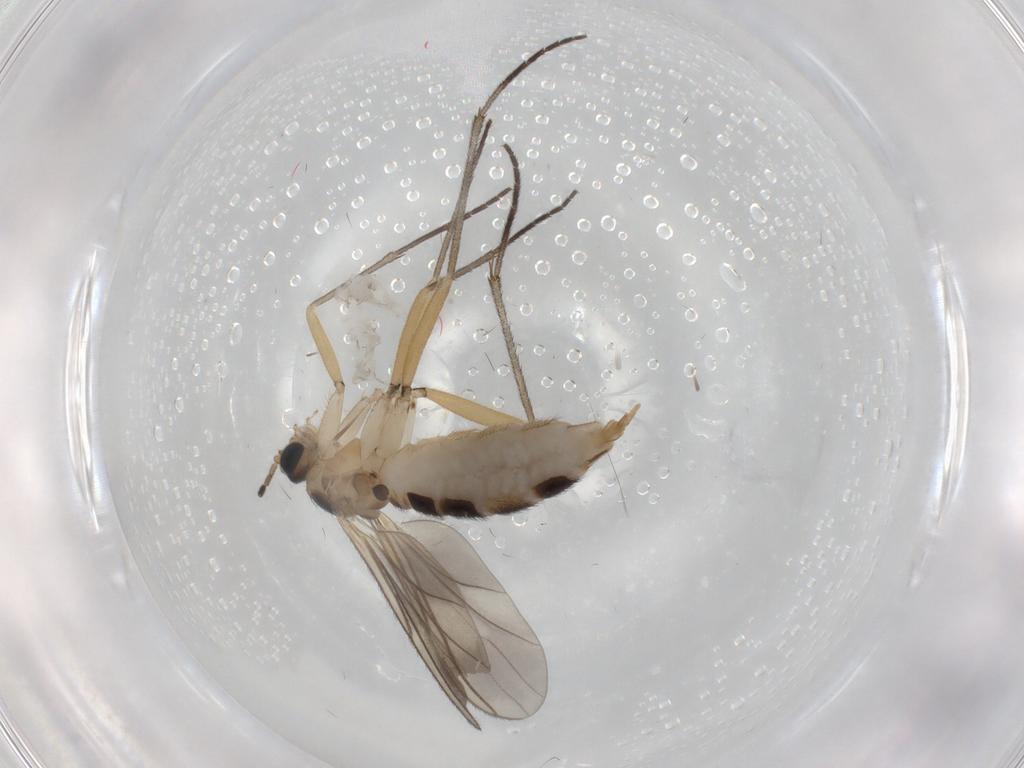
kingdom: Animalia
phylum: Arthropoda
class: Insecta
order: Diptera
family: Sciaridae
